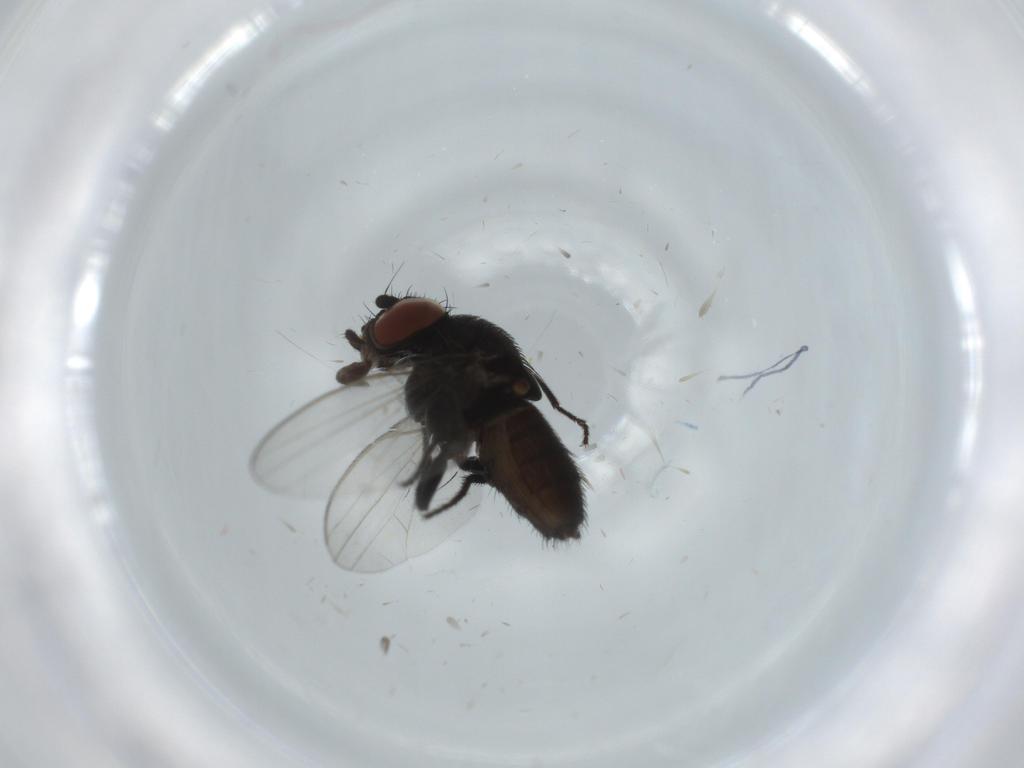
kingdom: Animalia
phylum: Arthropoda
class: Insecta
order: Diptera
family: Milichiidae
